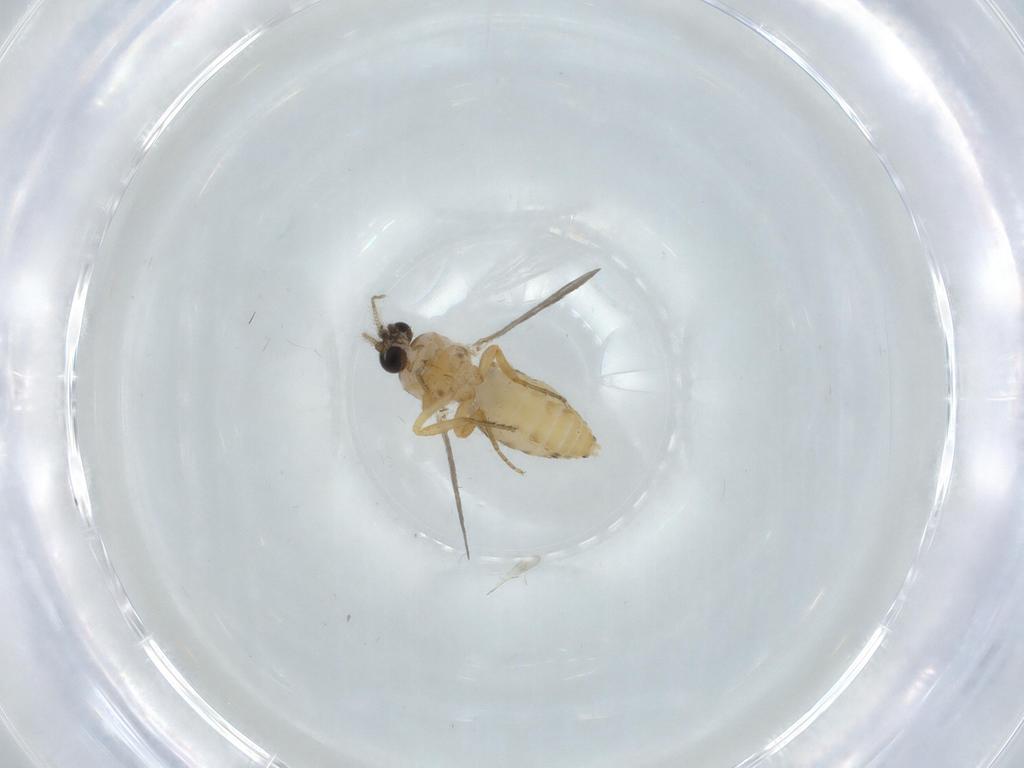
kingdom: Animalia
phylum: Arthropoda
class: Insecta
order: Diptera
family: Ceratopogonidae
